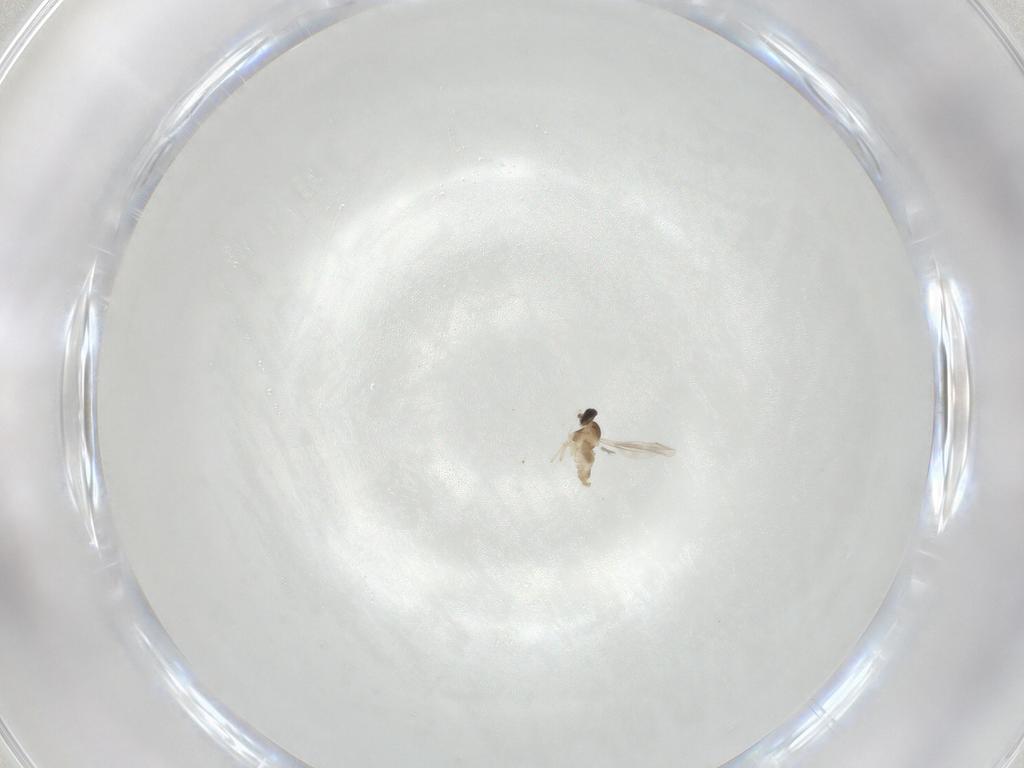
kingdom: Animalia
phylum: Arthropoda
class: Insecta
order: Diptera
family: Cecidomyiidae
